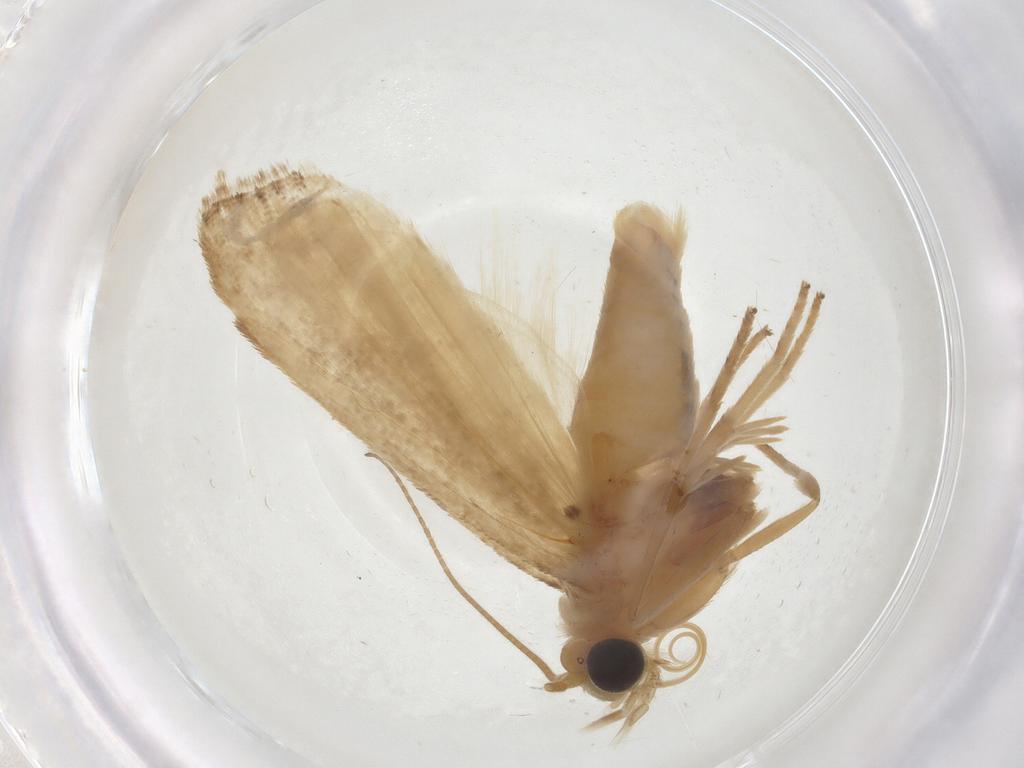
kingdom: Animalia
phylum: Arthropoda
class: Insecta
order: Lepidoptera
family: Pyralidae
